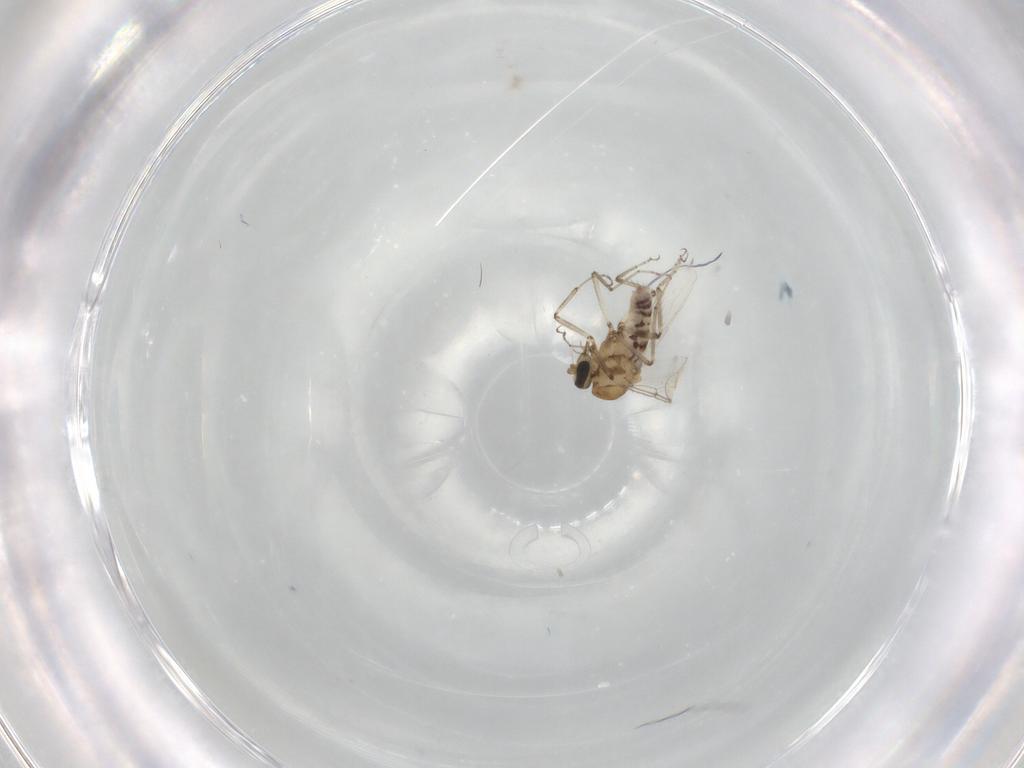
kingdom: Animalia
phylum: Arthropoda
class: Insecta
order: Diptera
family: Ceratopogonidae
